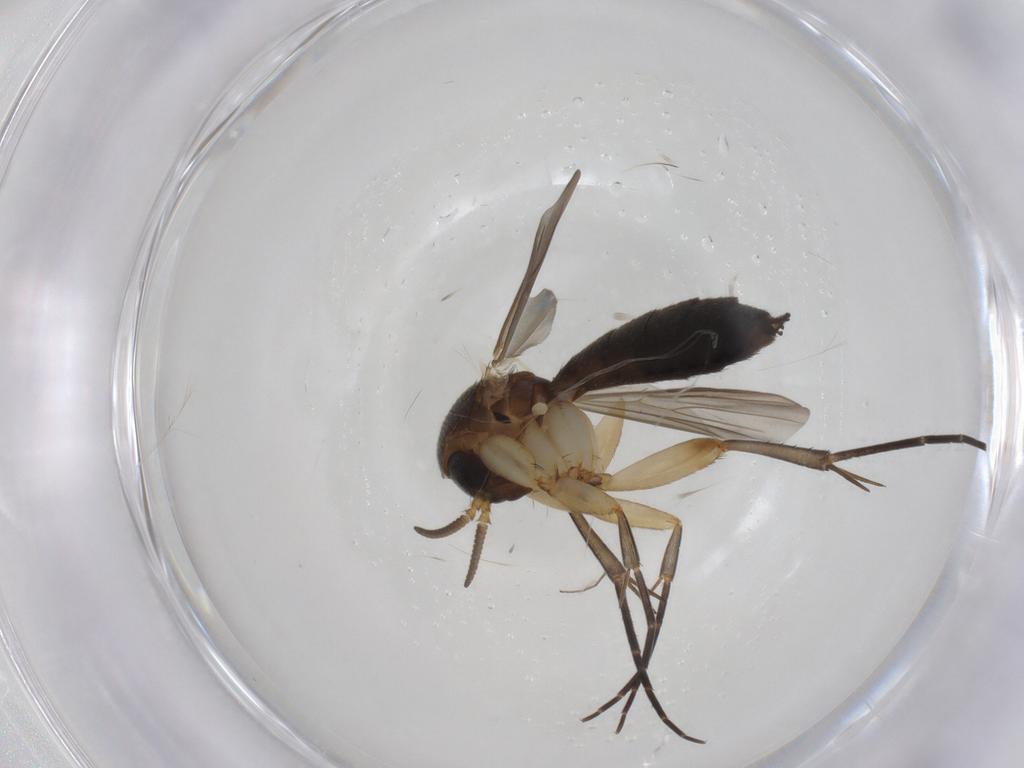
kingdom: Animalia
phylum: Arthropoda
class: Insecta
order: Diptera
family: Mycetophilidae
